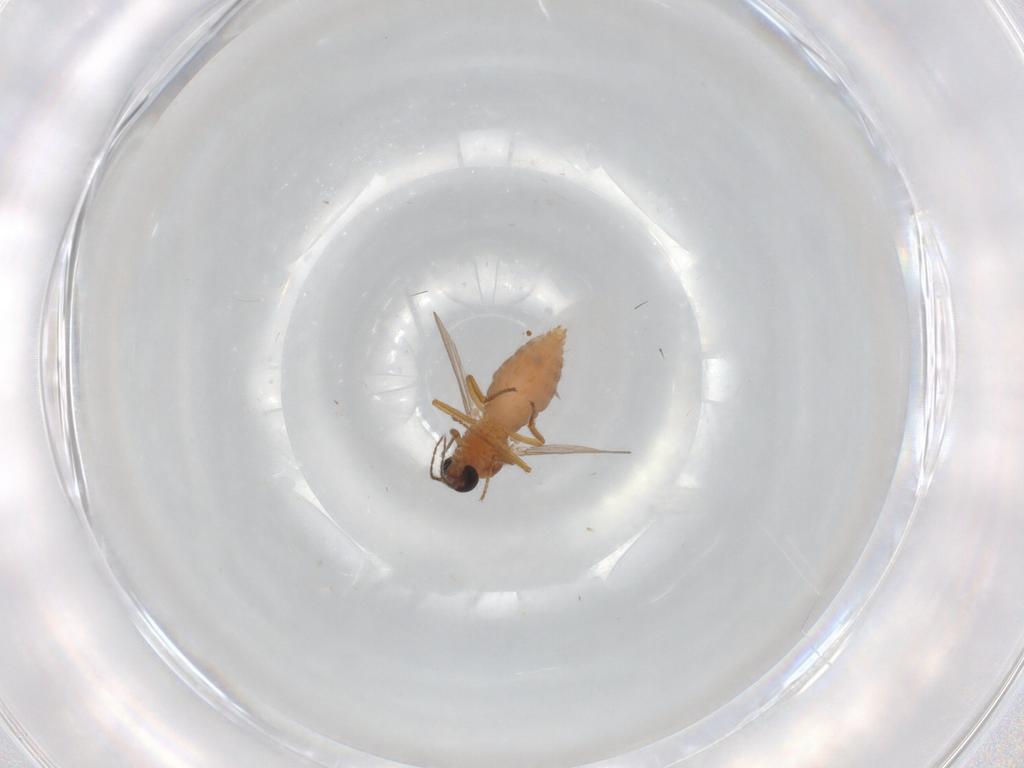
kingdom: Animalia
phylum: Arthropoda
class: Insecta
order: Diptera
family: Ceratopogonidae
